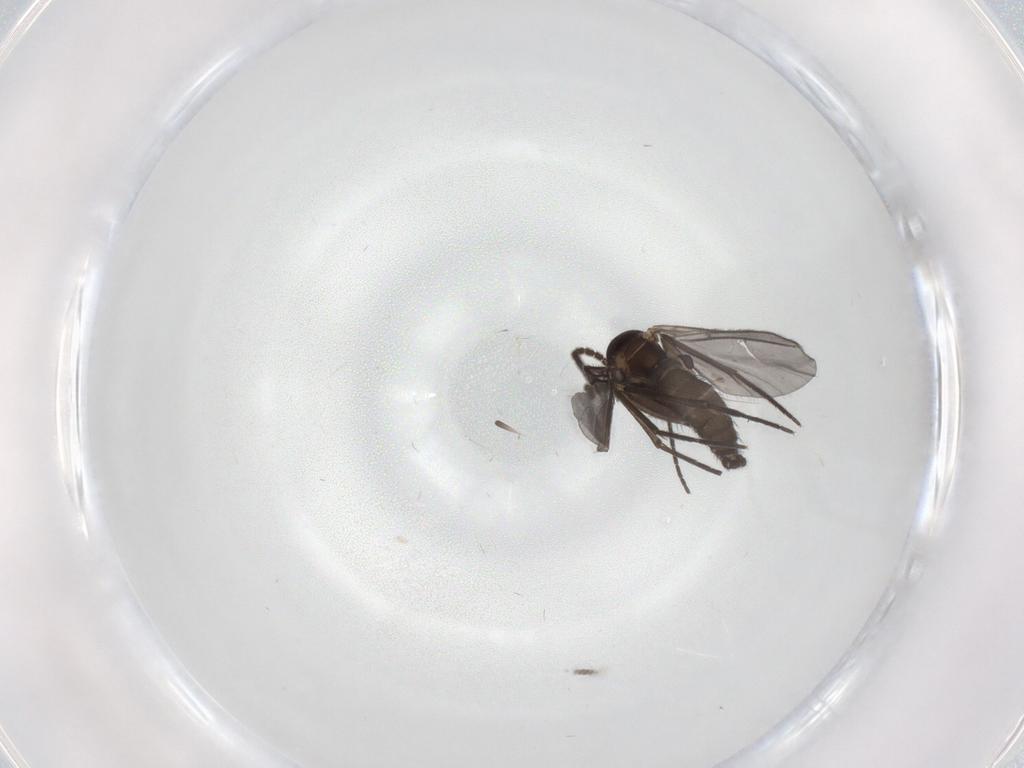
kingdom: Animalia
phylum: Arthropoda
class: Insecta
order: Diptera
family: Sciaridae
